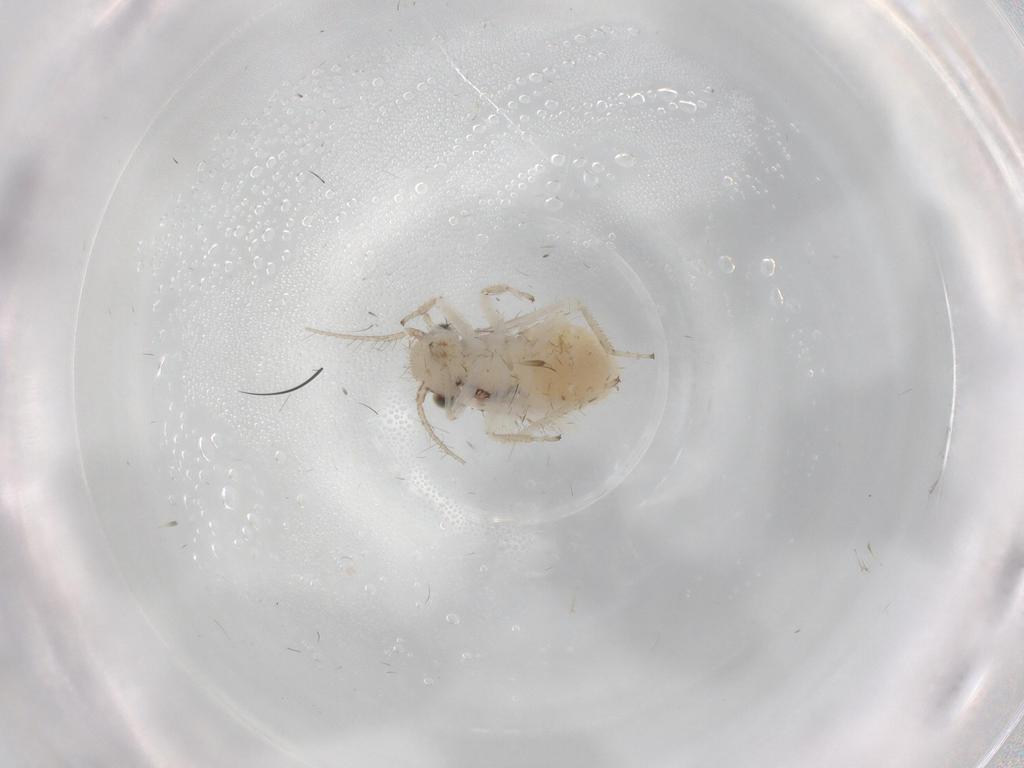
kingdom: Animalia
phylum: Arthropoda
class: Insecta
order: Psocodea
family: Pseudocaeciliidae
